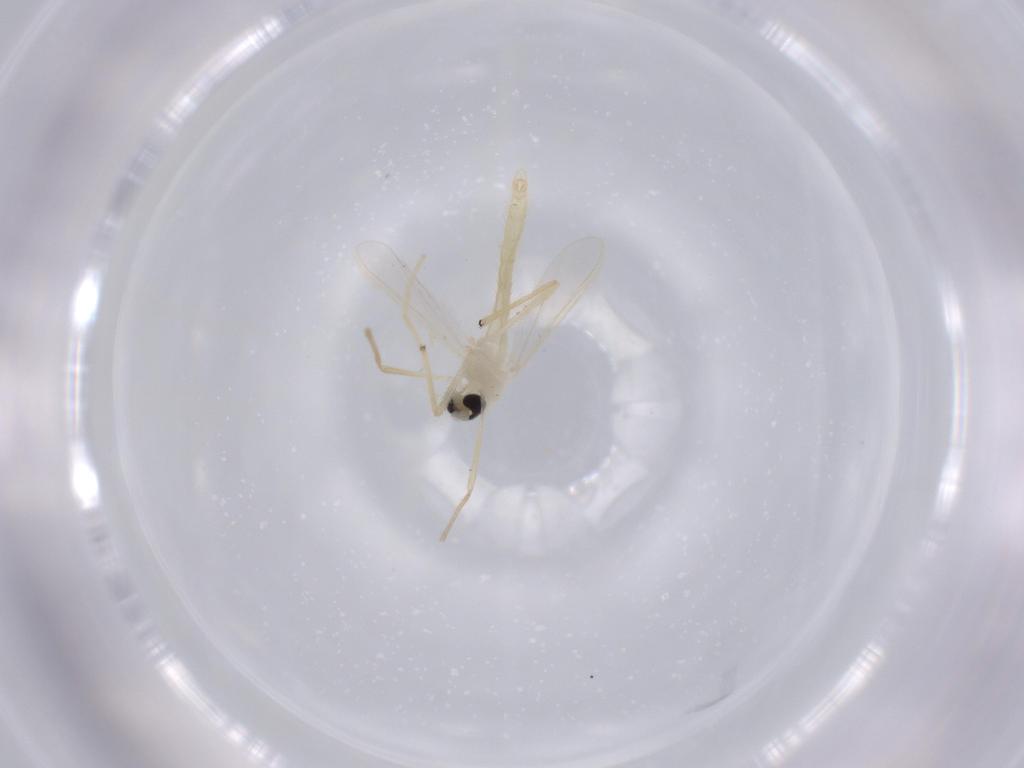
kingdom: Animalia
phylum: Arthropoda
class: Insecta
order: Diptera
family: Chironomidae
